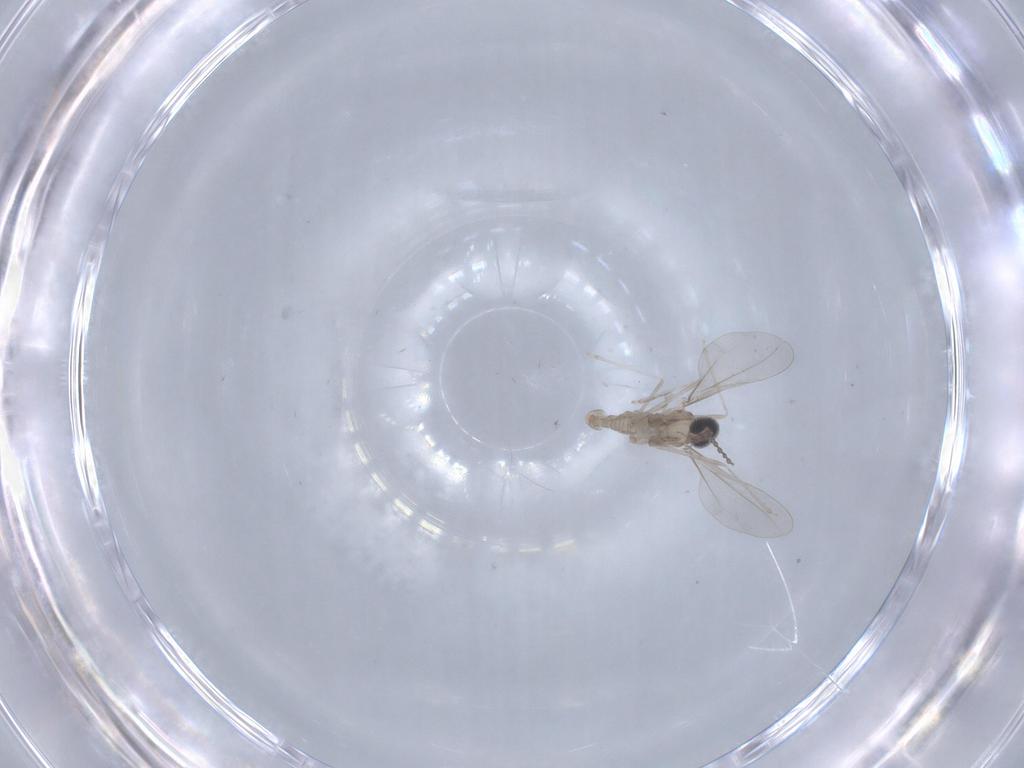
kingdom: Animalia
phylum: Arthropoda
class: Insecta
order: Diptera
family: Cecidomyiidae
